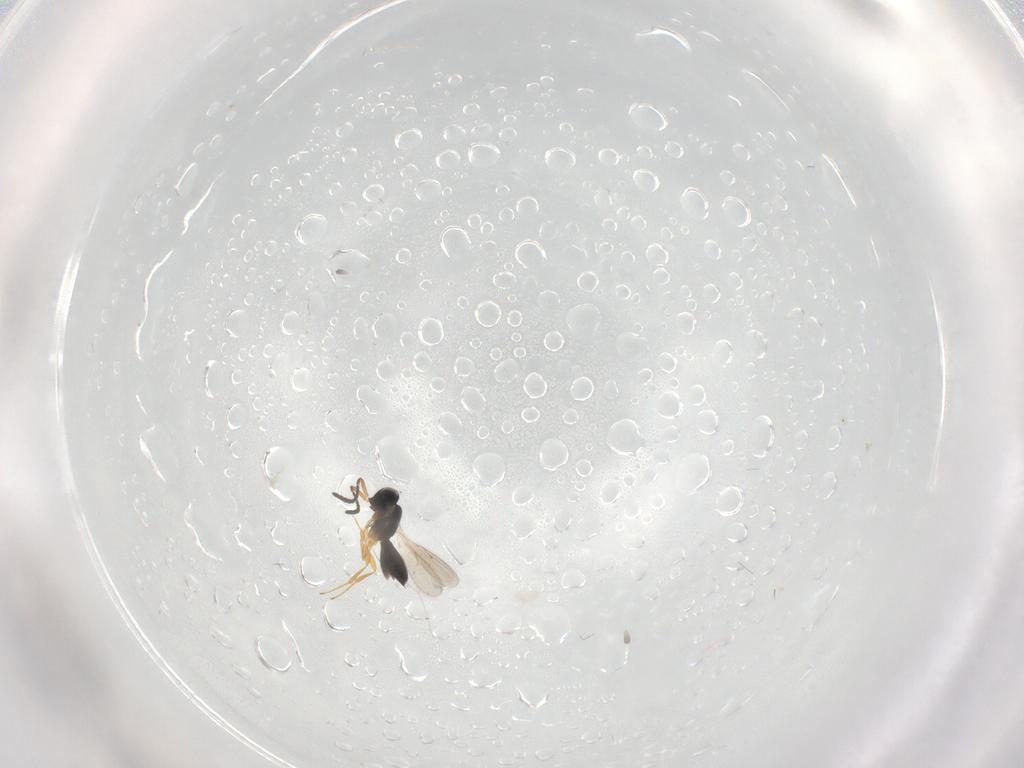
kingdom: Animalia
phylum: Arthropoda
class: Insecta
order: Hymenoptera
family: Scelionidae
